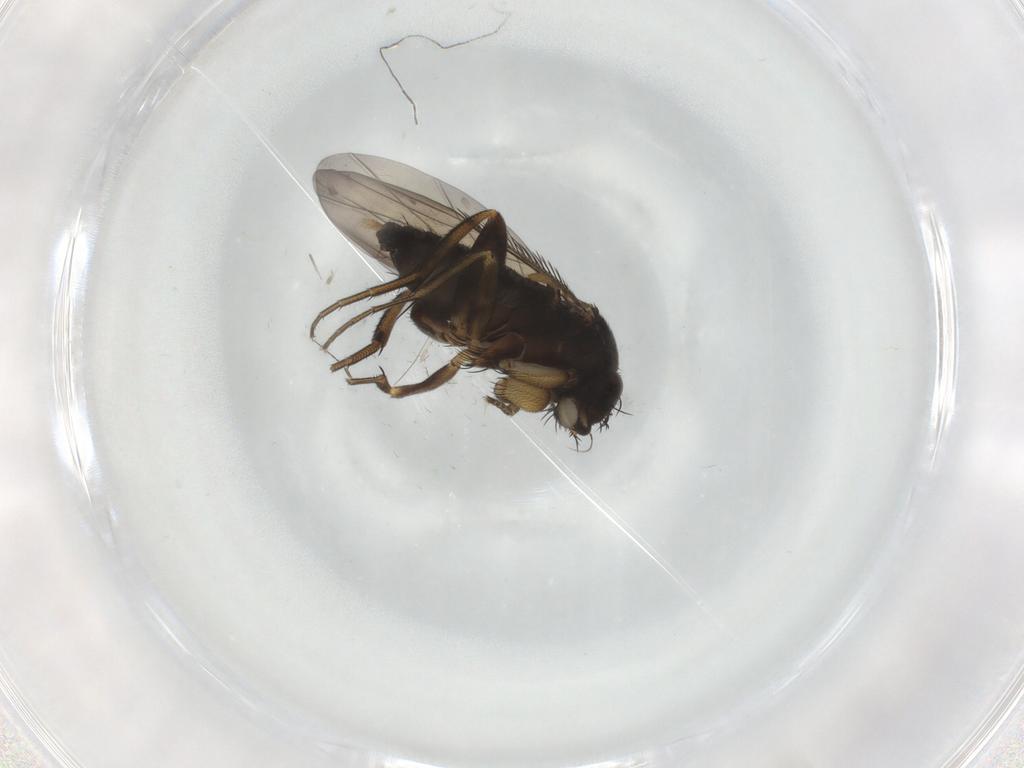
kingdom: Animalia
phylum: Arthropoda
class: Insecta
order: Diptera
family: Phoridae
